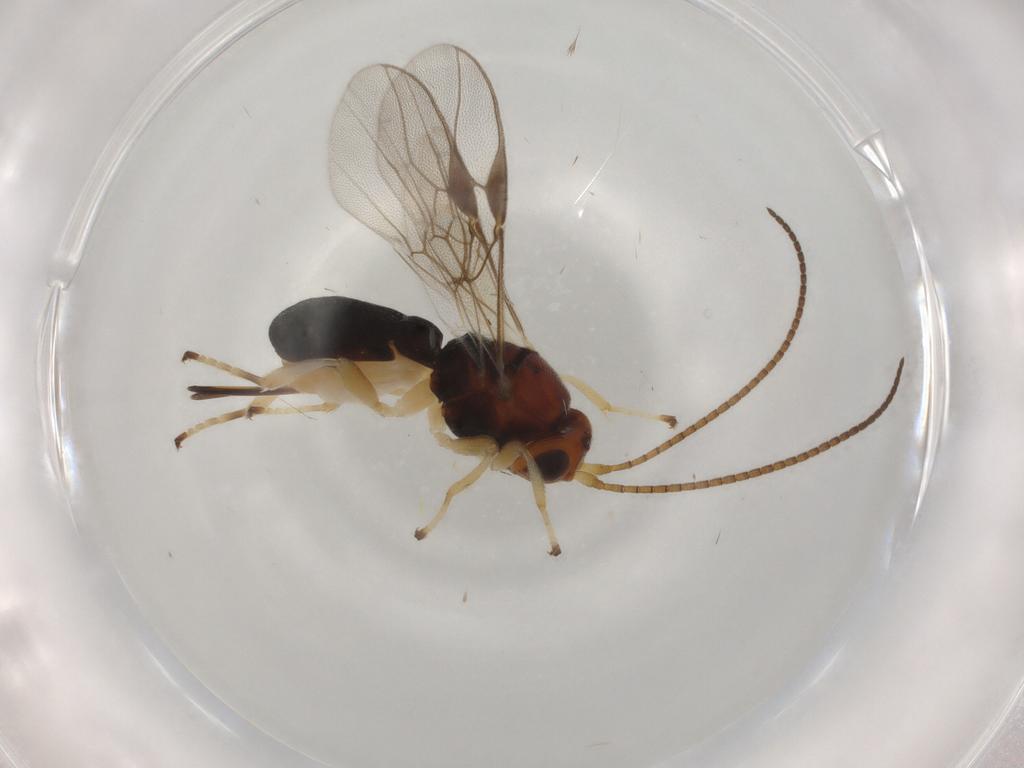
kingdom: Animalia
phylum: Arthropoda
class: Insecta
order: Hymenoptera
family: Braconidae
